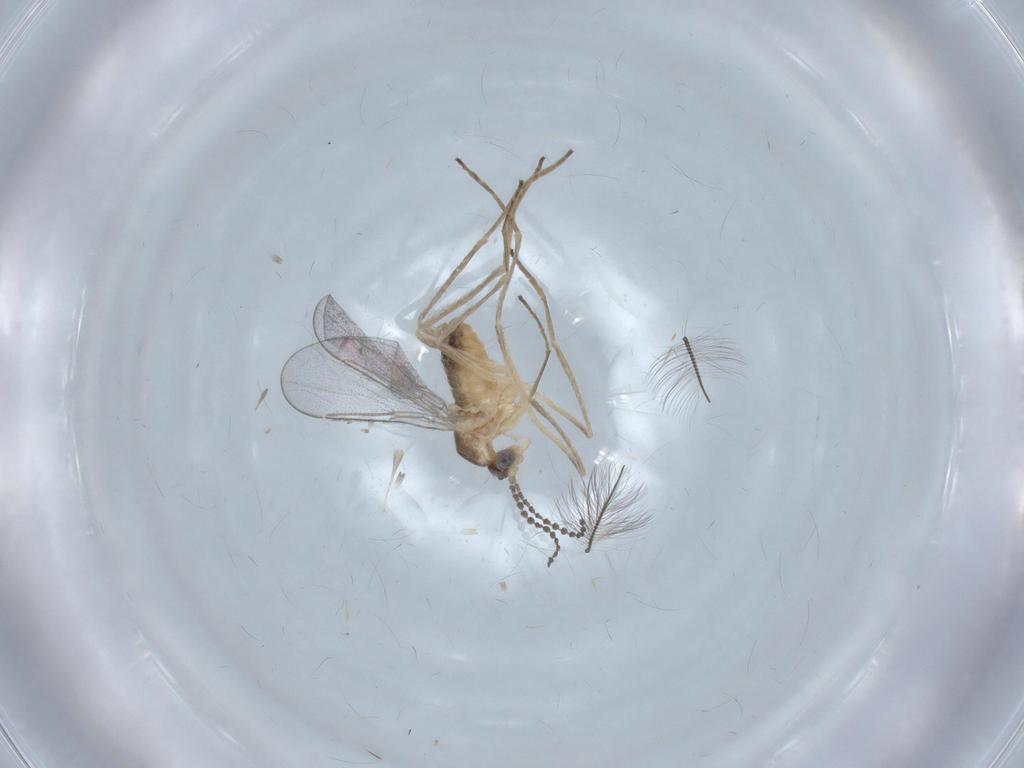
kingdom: Animalia
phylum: Arthropoda
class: Insecta
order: Diptera
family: Cecidomyiidae
